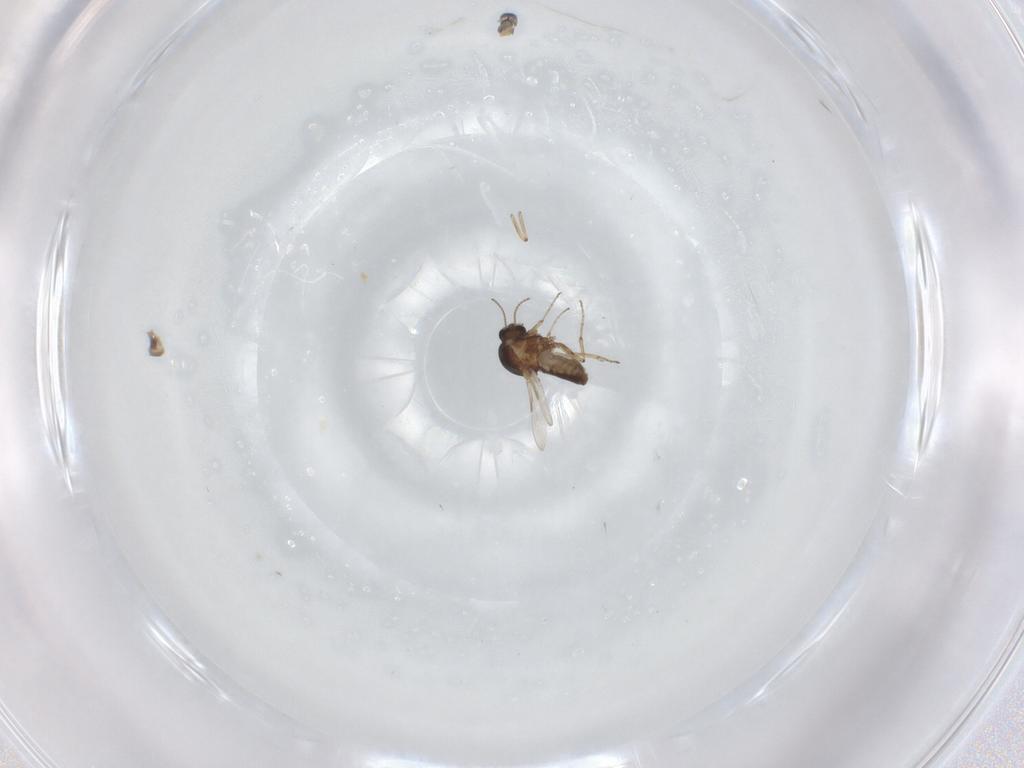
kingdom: Animalia
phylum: Arthropoda
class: Insecta
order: Diptera
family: Ceratopogonidae
